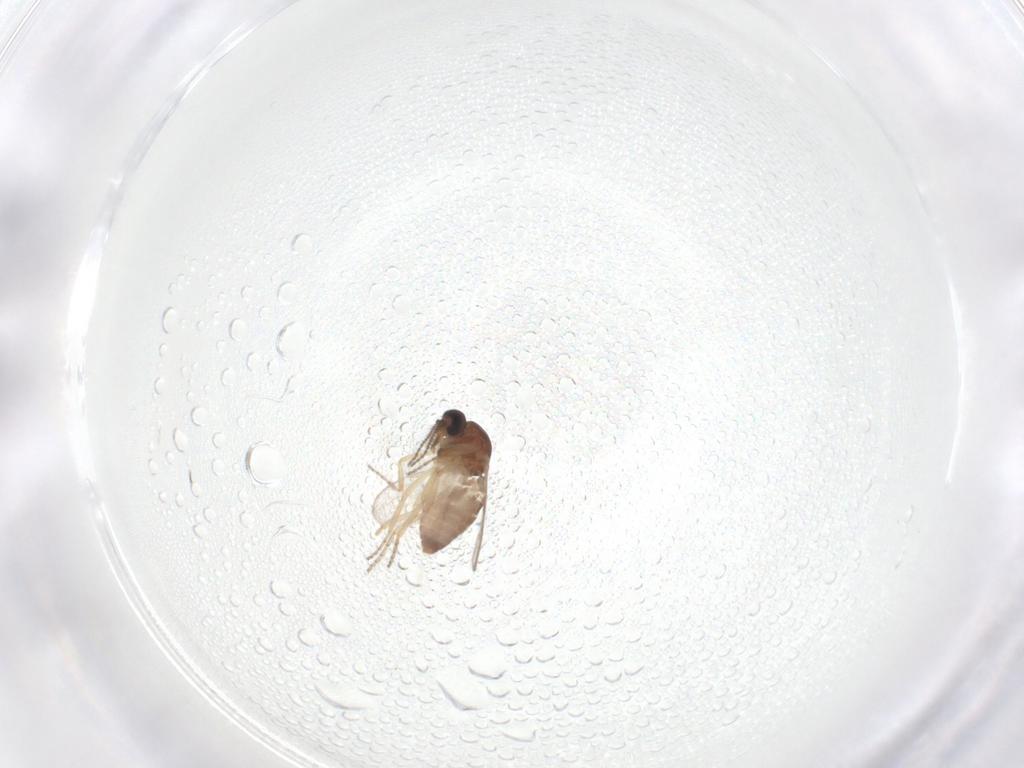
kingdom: Animalia
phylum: Arthropoda
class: Insecta
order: Diptera
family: Ceratopogonidae
